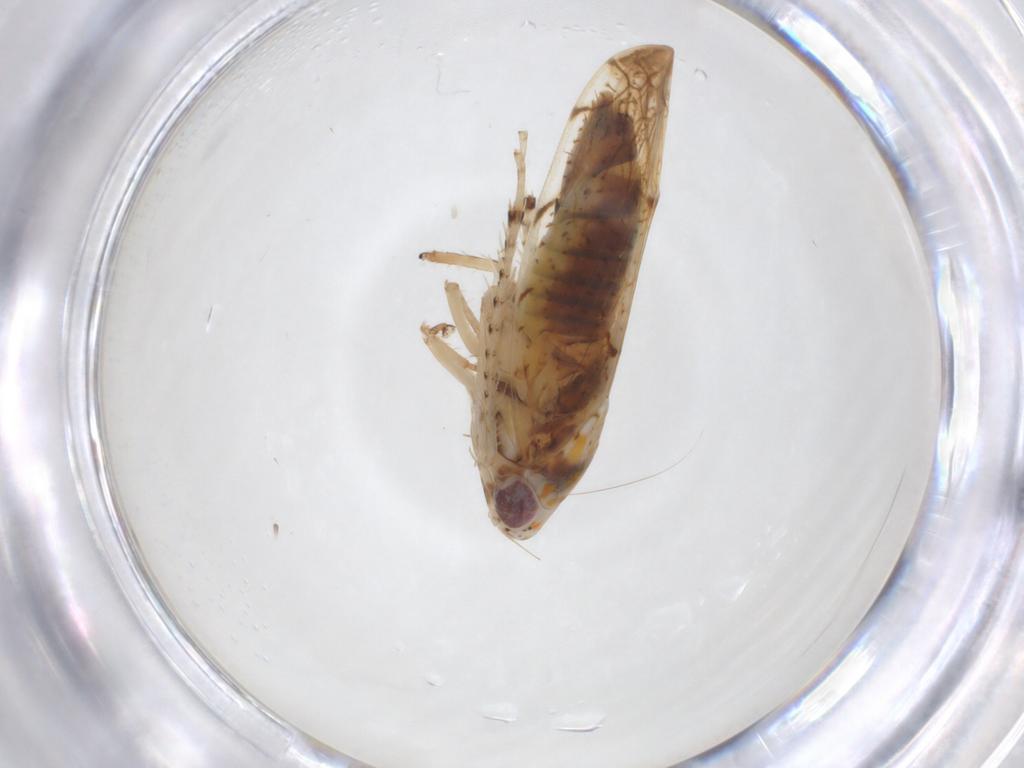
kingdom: Animalia
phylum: Arthropoda
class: Insecta
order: Hemiptera
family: Cicadellidae
